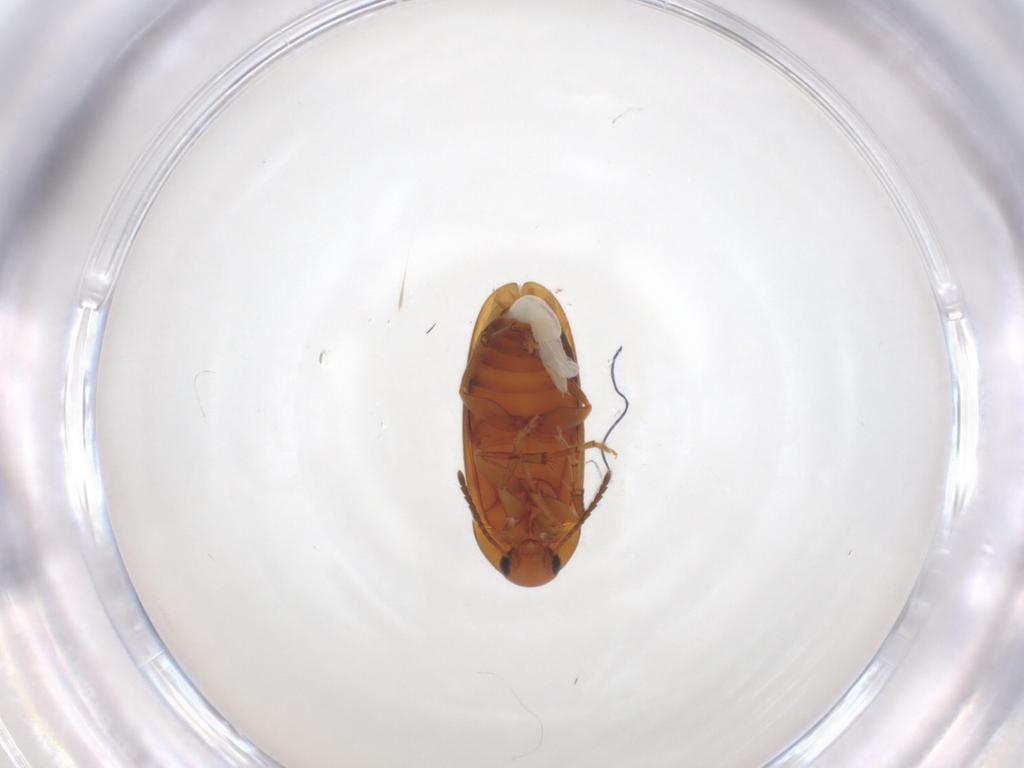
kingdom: Animalia
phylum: Arthropoda
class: Insecta
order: Coleoptera
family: Scraptiidae
